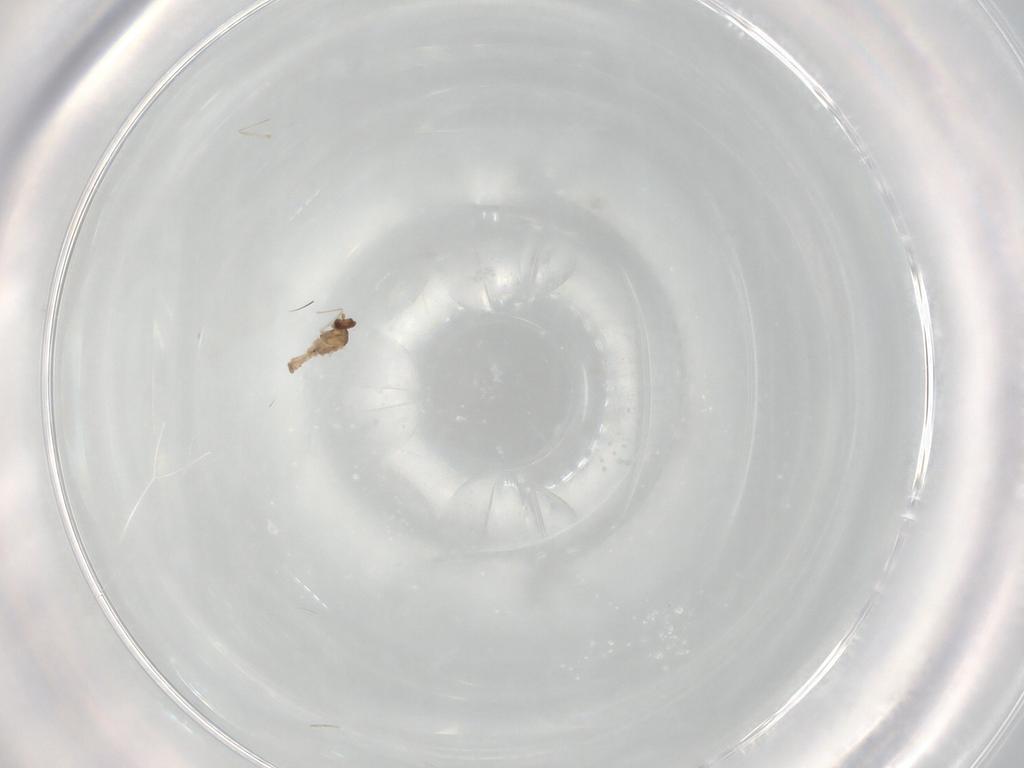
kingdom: Animalia
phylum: Arthropoda
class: Insecta
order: Diptera
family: Cecidomyiidae
